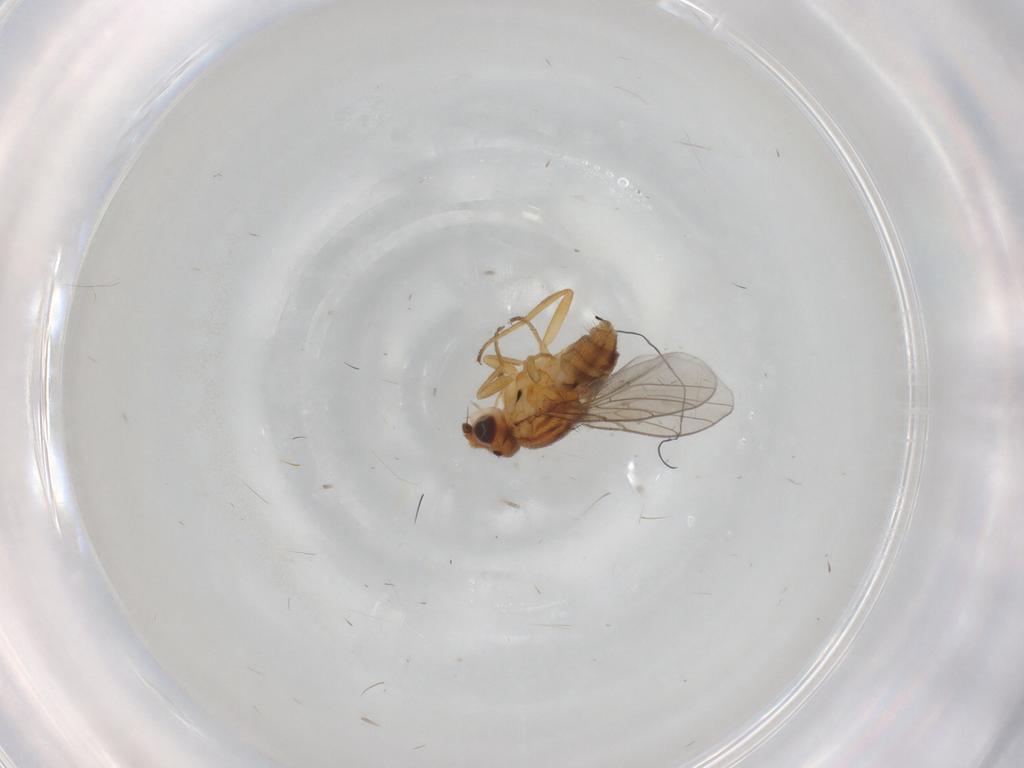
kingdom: Animalia
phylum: Arthropoda
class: Insecta
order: Diptera
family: Chloropidae
